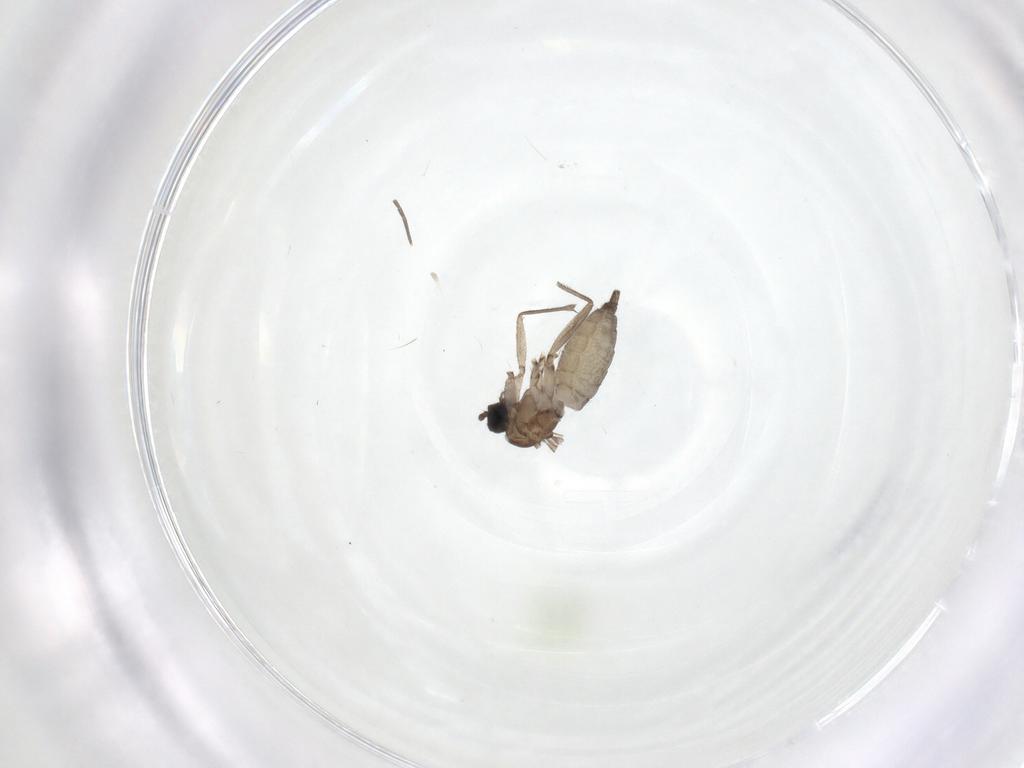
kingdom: Animalia
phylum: Arthropoda
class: Insecta
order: Diptera
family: Sciaridae
